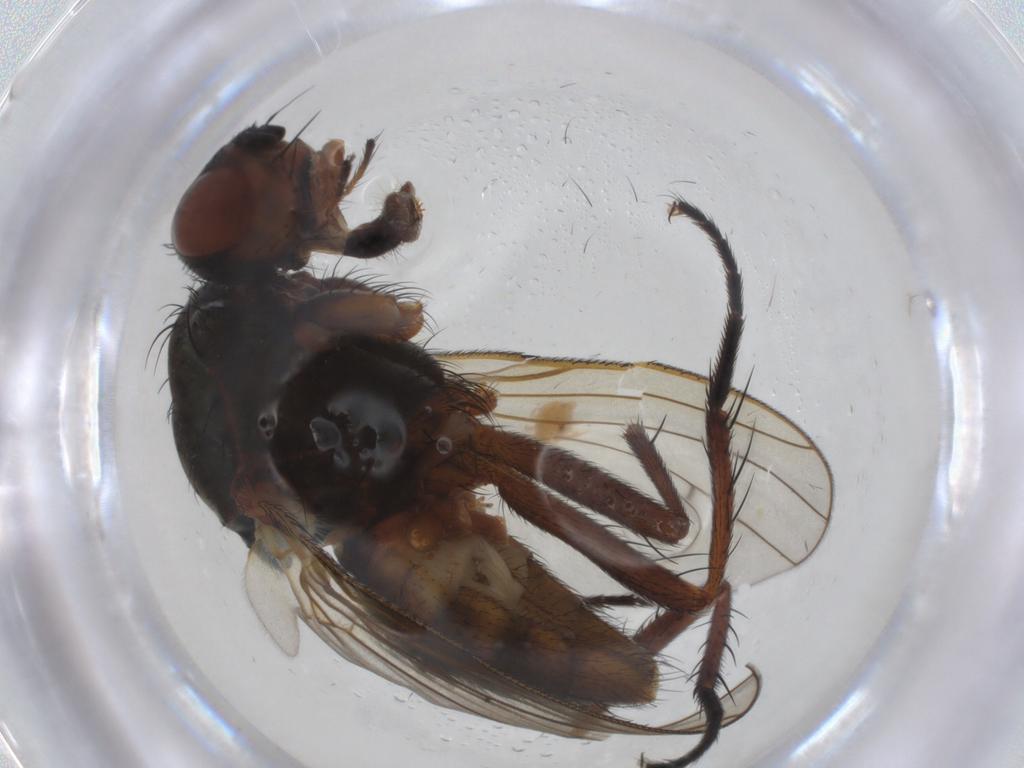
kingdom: Animalia
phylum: Arthropoda
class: Insecta
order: Diptera
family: Anthomyiidae
